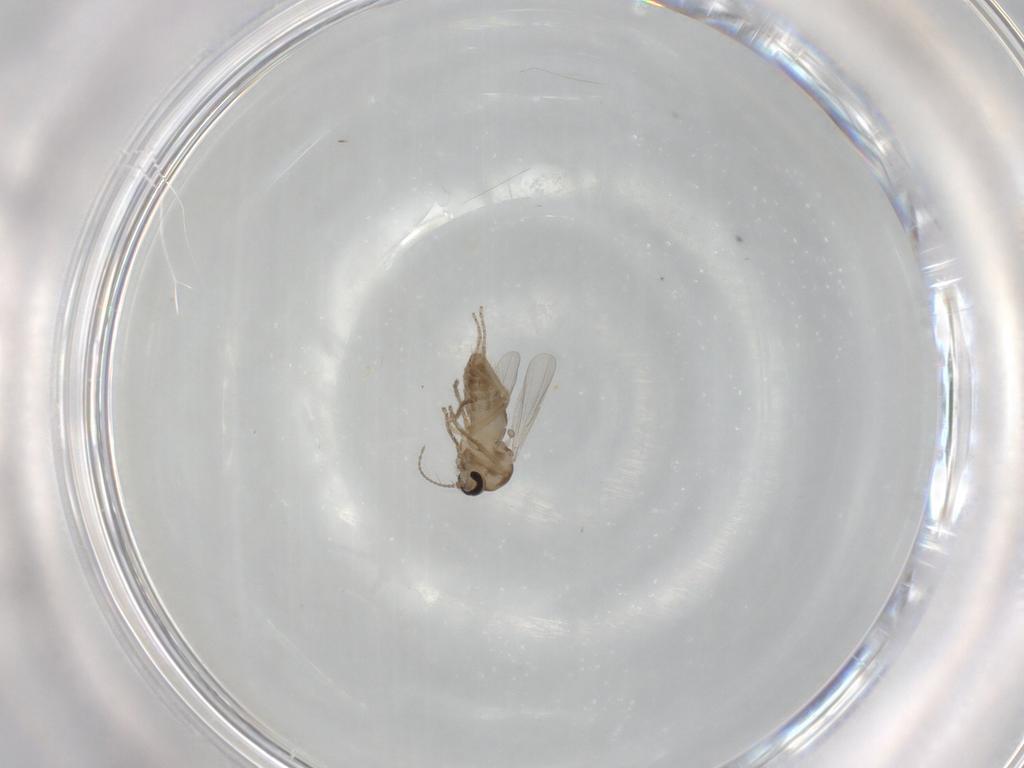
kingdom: Animalia
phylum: Arthropoda
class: Insecta
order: Diptera
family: Ceratopogonidae
